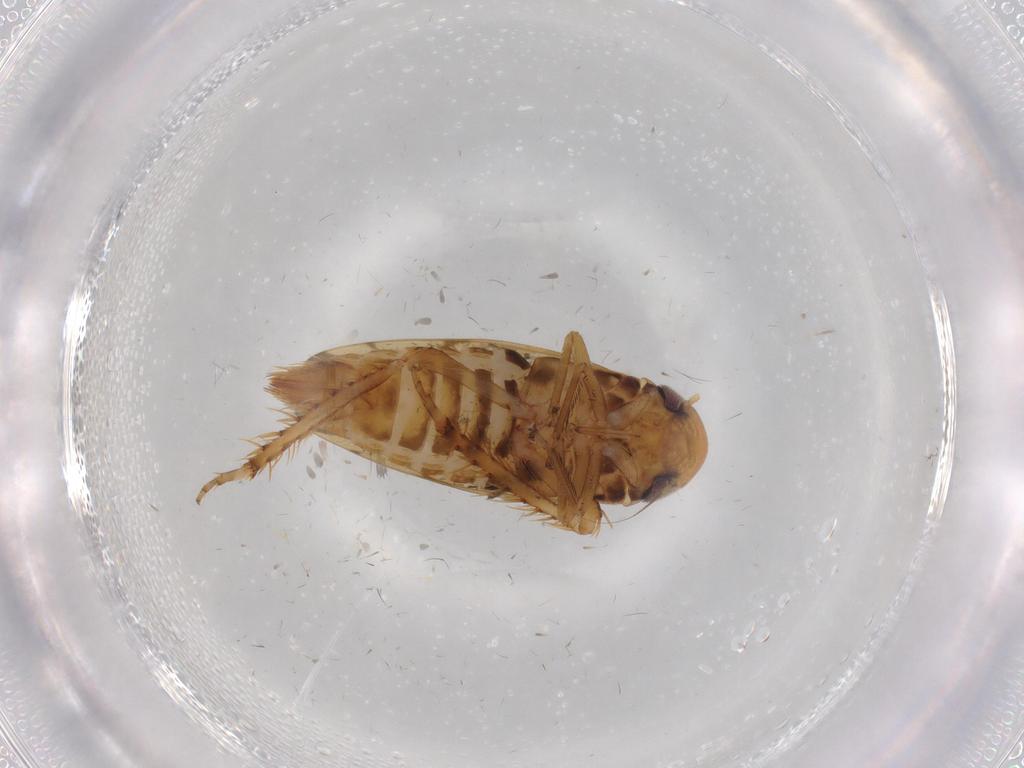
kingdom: Animalia
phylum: Arthropoda
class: Insecta
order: Hemiptera
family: Cicadellidae
